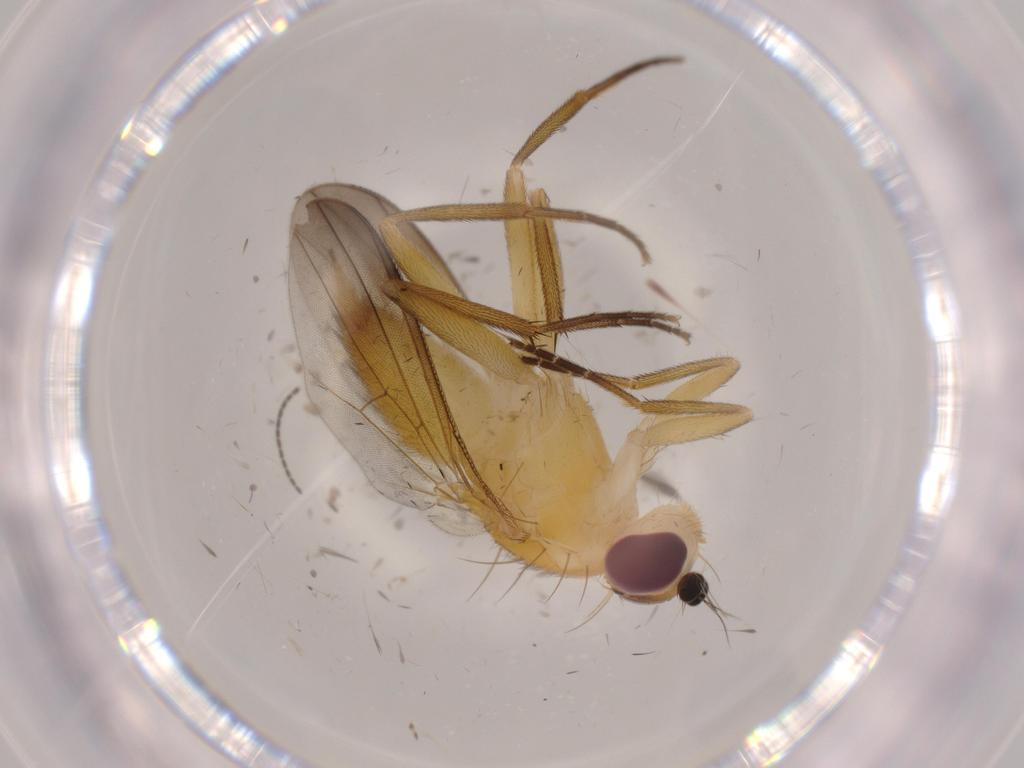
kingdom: Animalia
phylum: Arthropoda
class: Insecta
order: Diptera
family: Clusiidae
